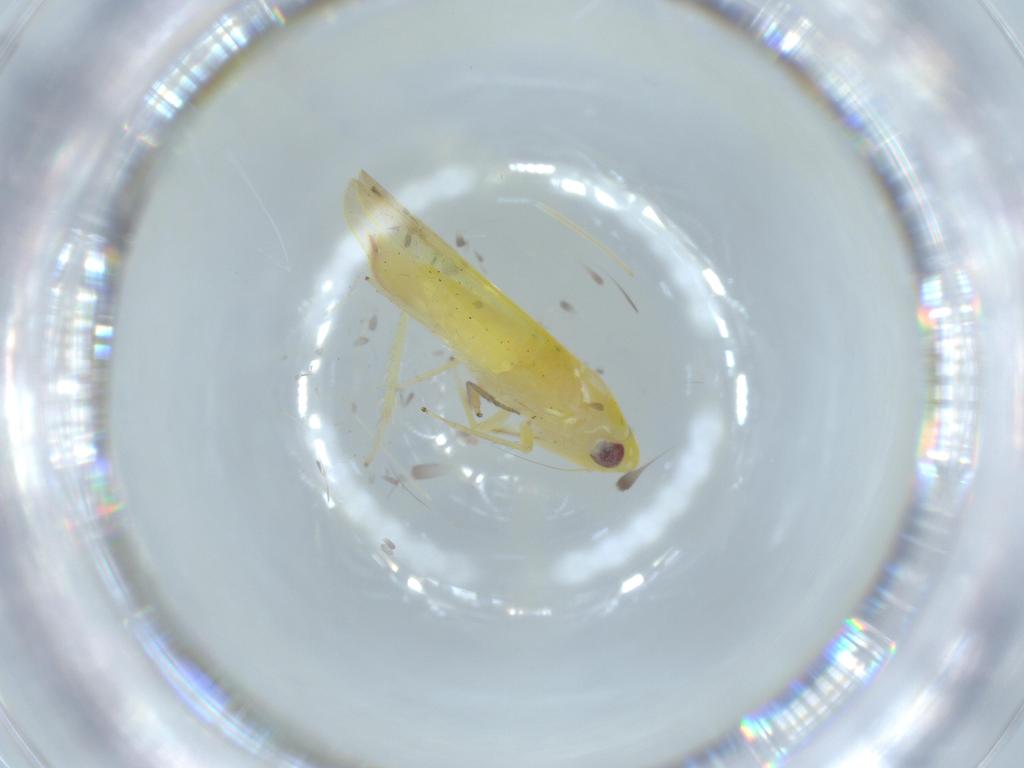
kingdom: Animalia
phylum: Arthropoda
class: Insecta
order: Hemiptera
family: Cicadellidae
